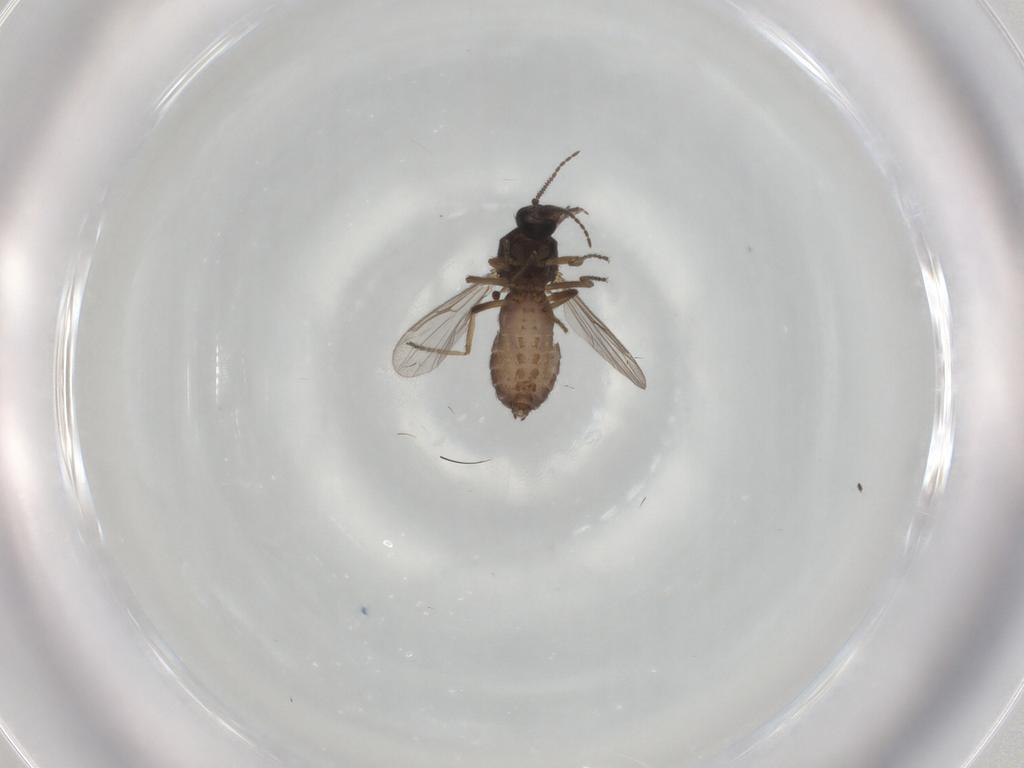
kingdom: Animalia
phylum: Arthropoda
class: Insecta
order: Diptera
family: Ceratopogonidae
